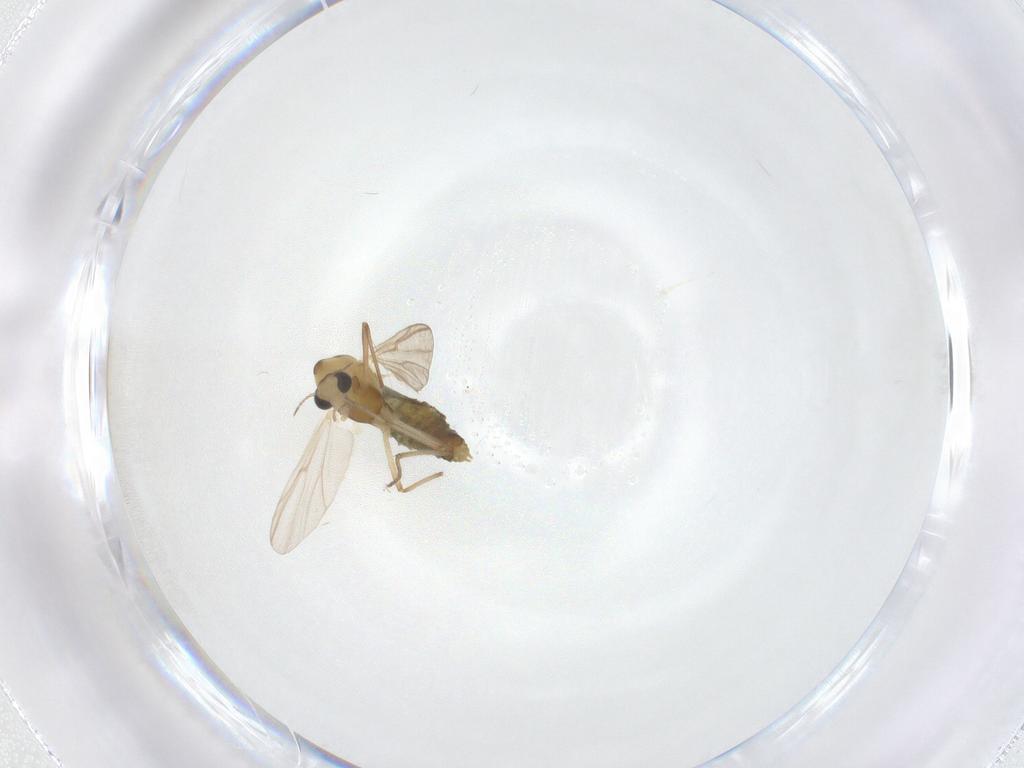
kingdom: Animalia
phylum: Arthropoda
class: Insecta
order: Diptera
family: Chironomidae
